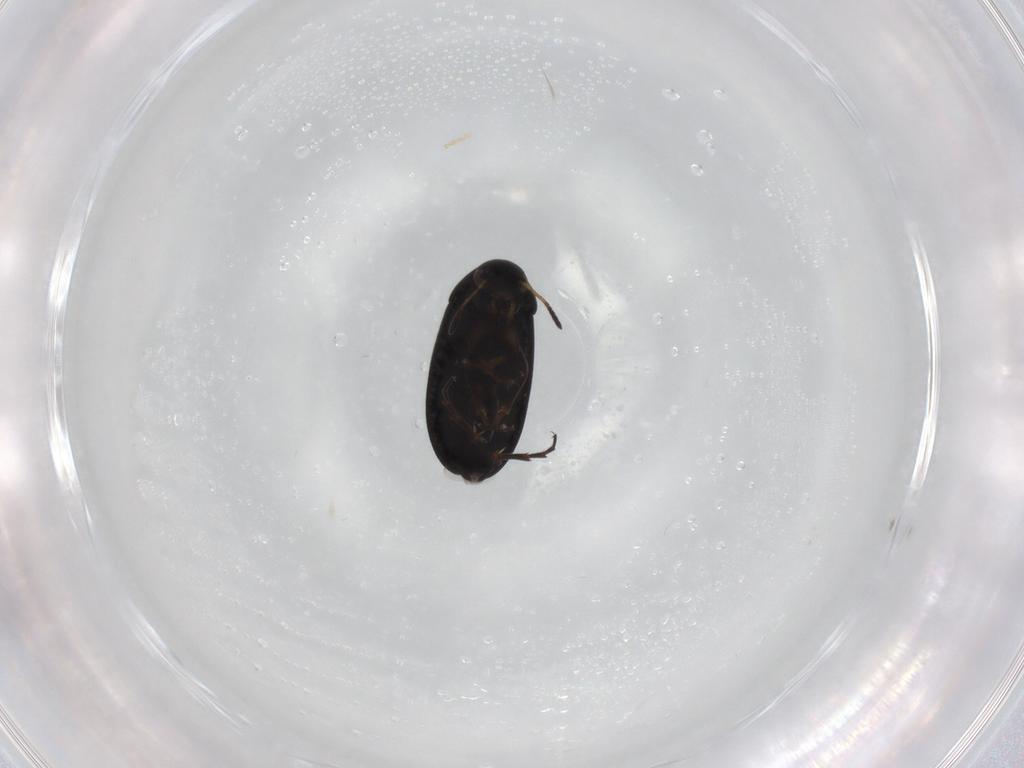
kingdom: Animalia
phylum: Arthropoda
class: Insecta
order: Coleoptera
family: Scraptiidae
